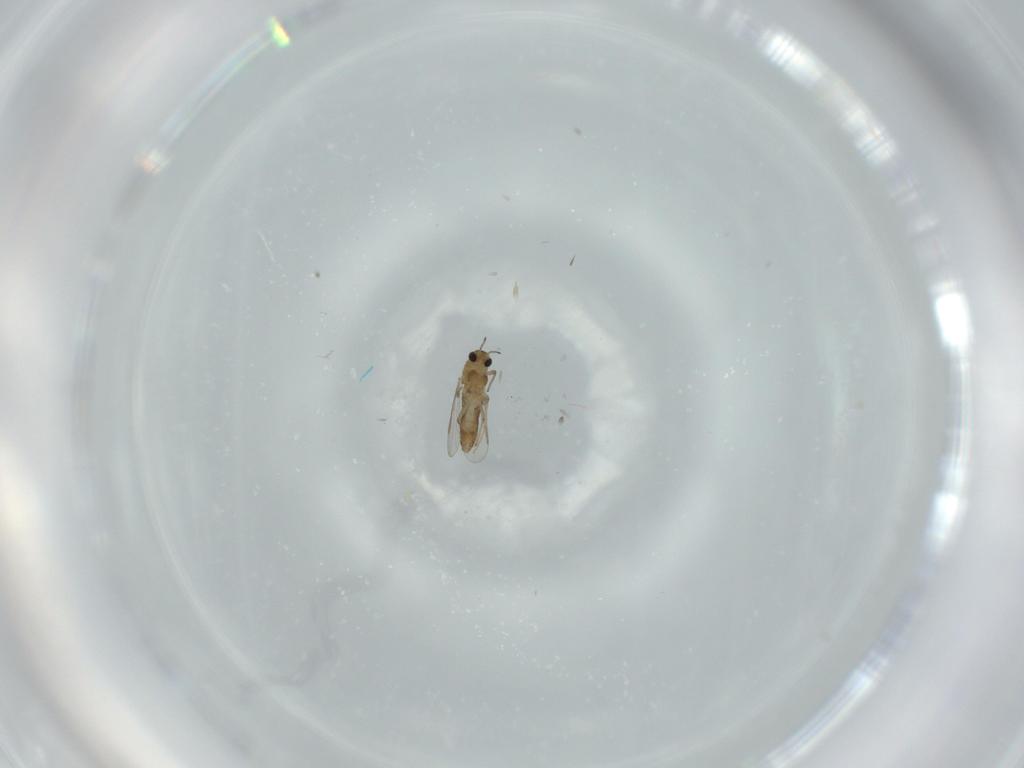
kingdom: Animalia
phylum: Arthropoda
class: Insecta
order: Diptera
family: Chironomidae
